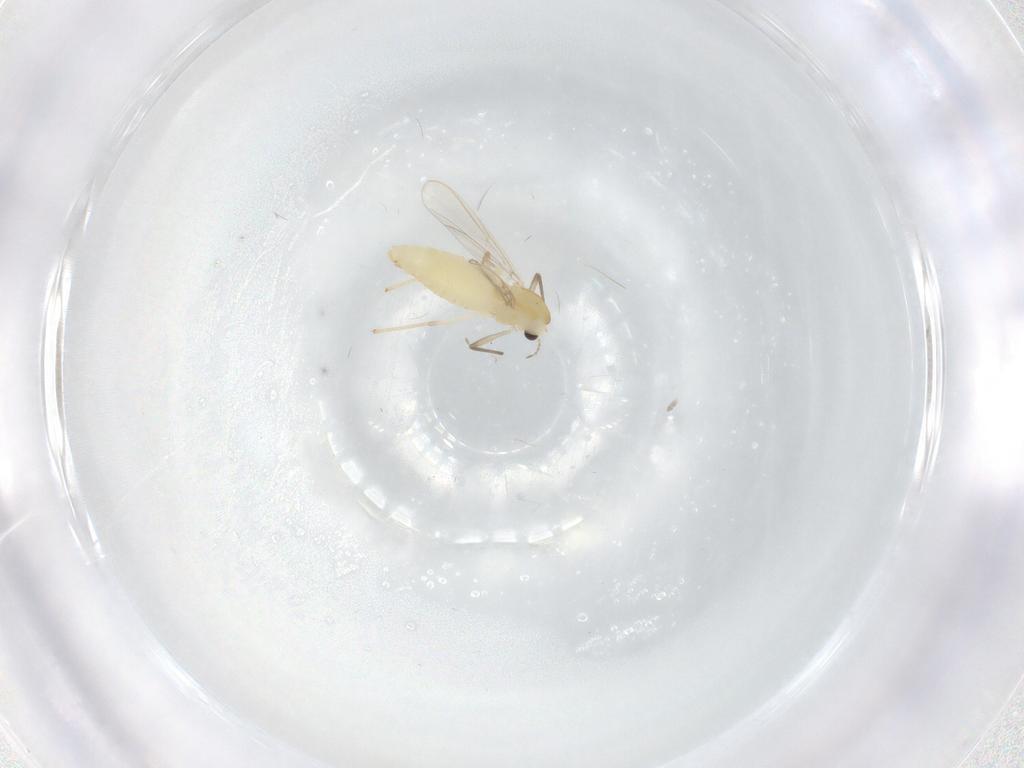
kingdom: Animalia
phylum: Arthropoda
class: Insecta
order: Diptera
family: Chironomidae
